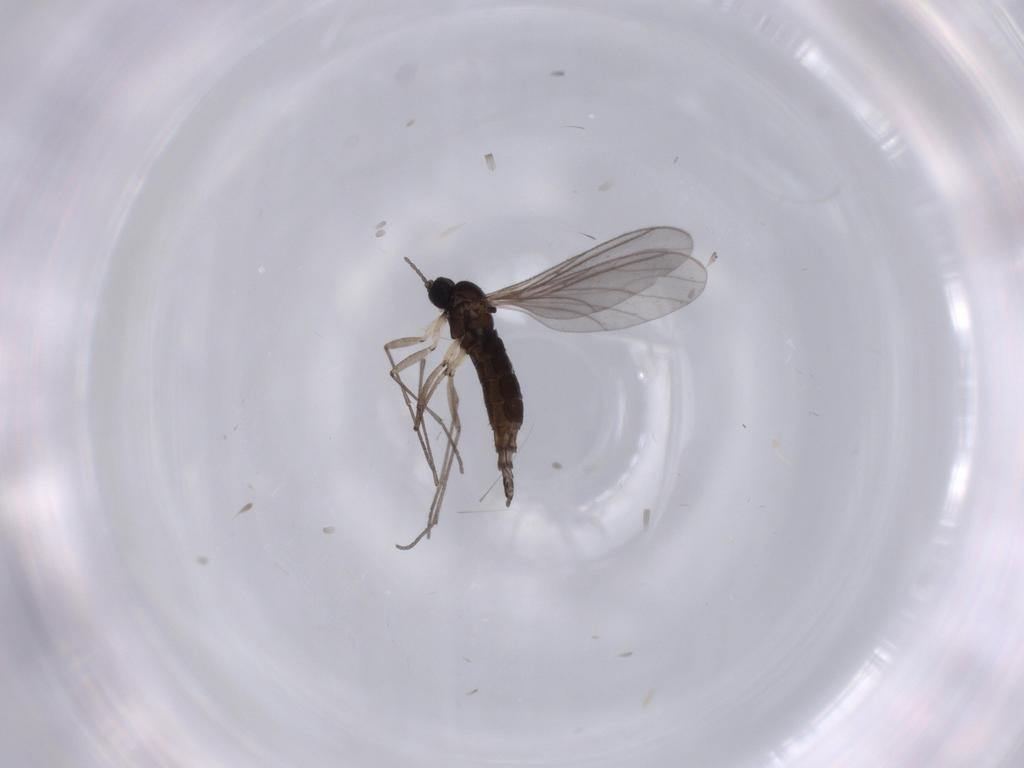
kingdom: Animalia
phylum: Arthropoda
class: Insecta
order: Diptera
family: Sciaridae
